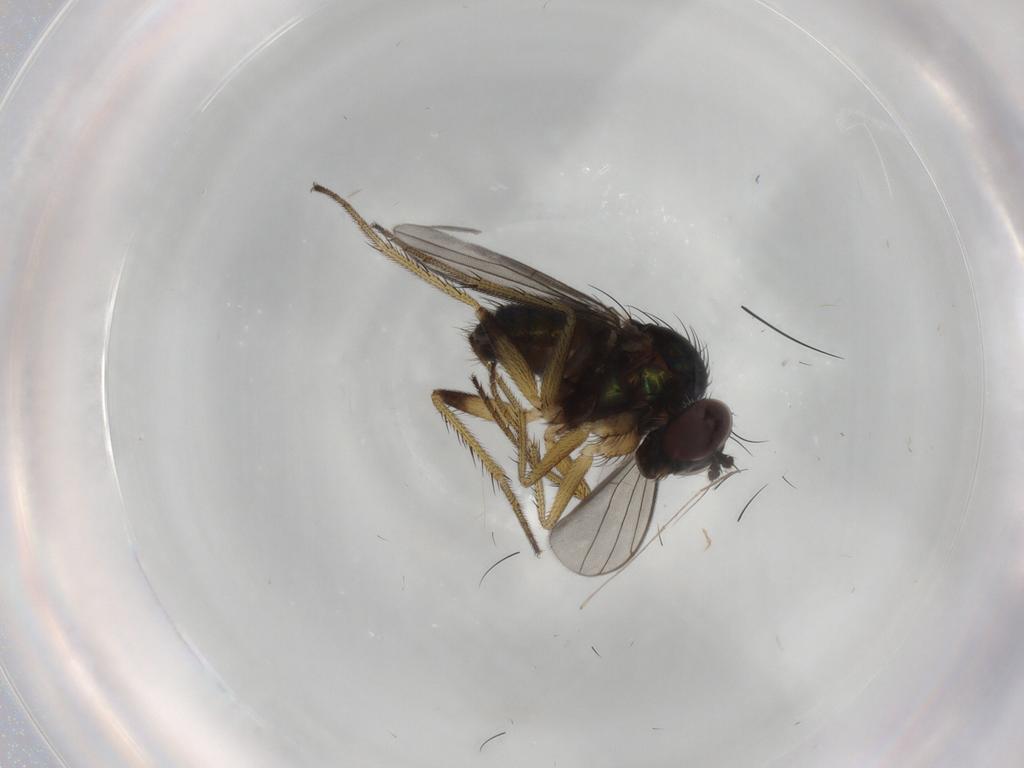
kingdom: Animalia
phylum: Arthropoda
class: Insecta
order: Diptera
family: Dolichopodidae
